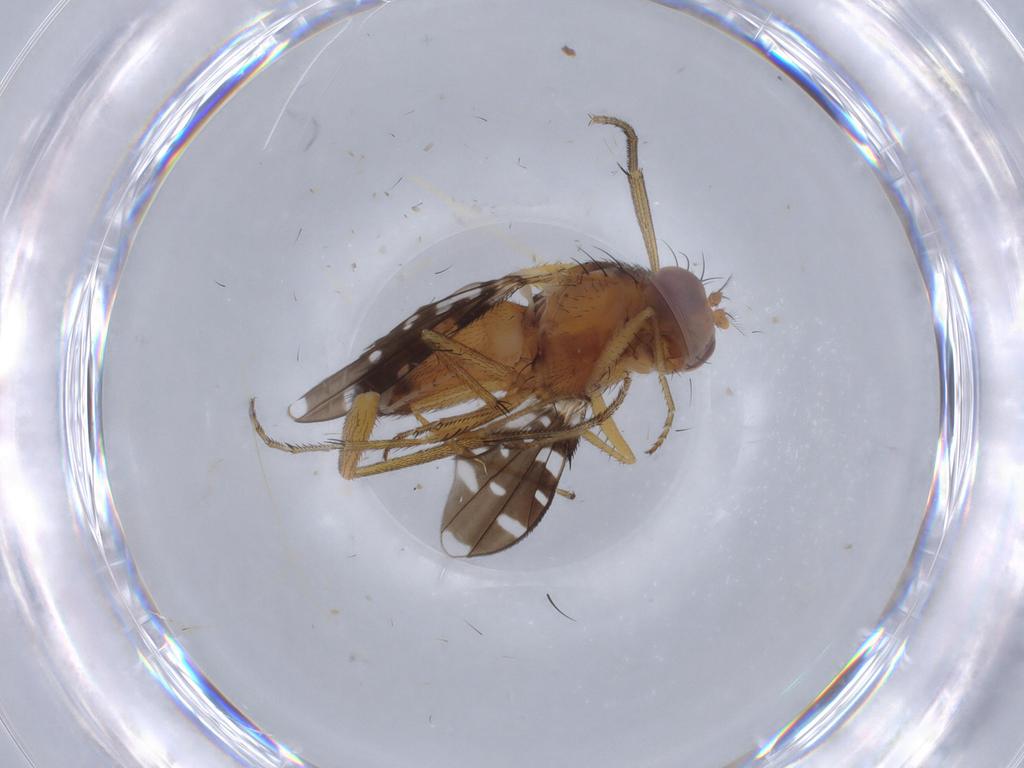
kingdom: Animalia
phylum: Arthropoda
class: Insecta
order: Diptera
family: Ephydridae
